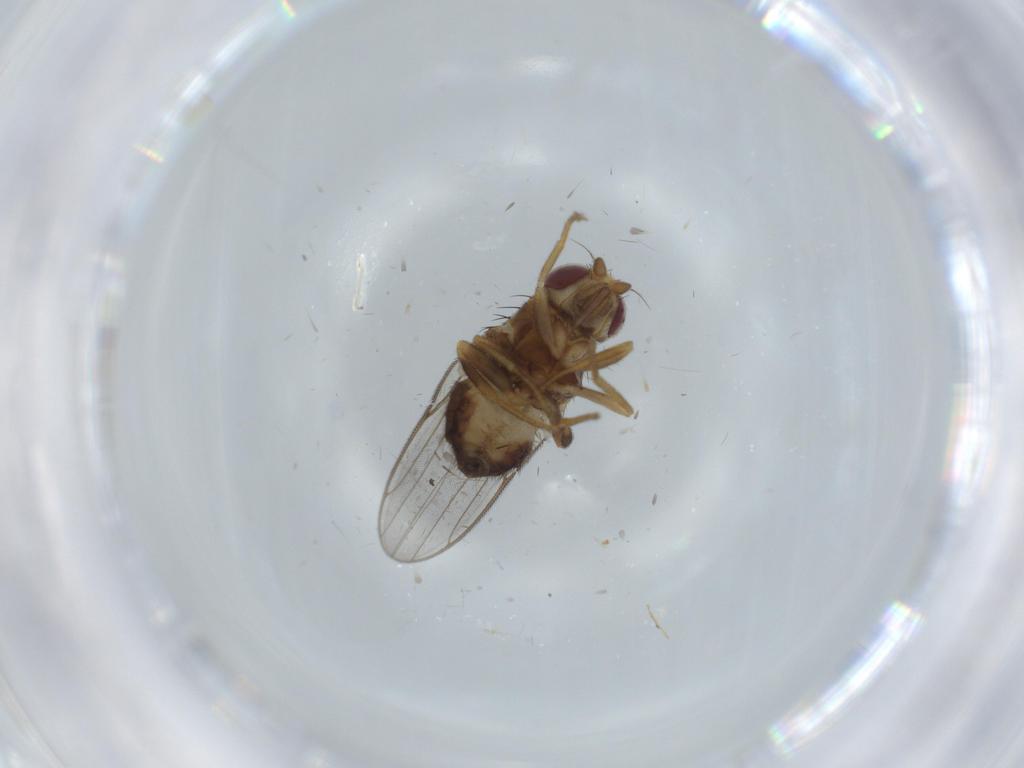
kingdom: Animalia
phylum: Arthropoda
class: Insecta
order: Diptera
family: Chloropidae
